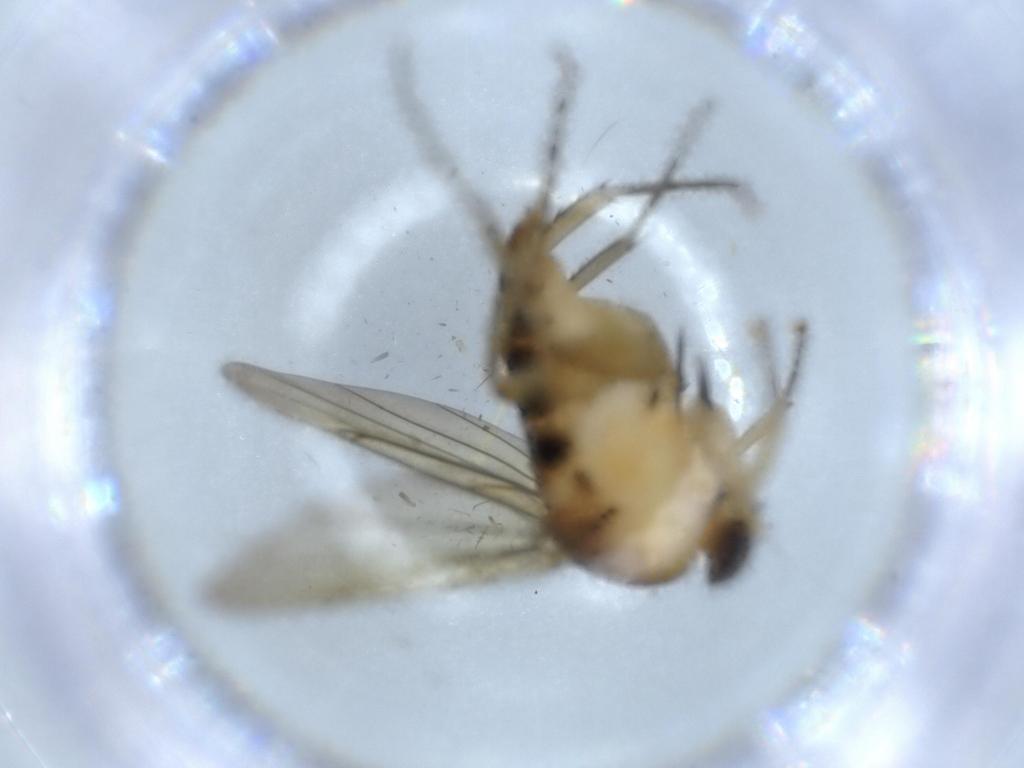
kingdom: Animalia
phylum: Arthropoda
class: Insecta
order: Diptera
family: Phoridae
